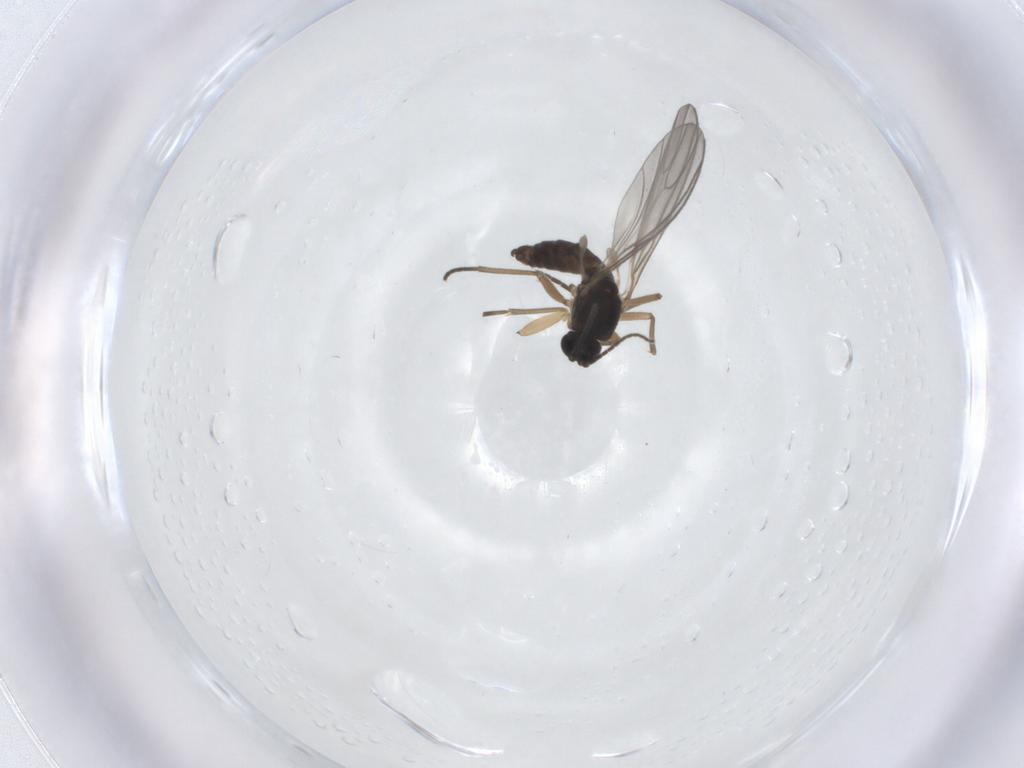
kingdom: Animalia
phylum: Arthropoda
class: Insecta
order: Diptera
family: Sciaridae
